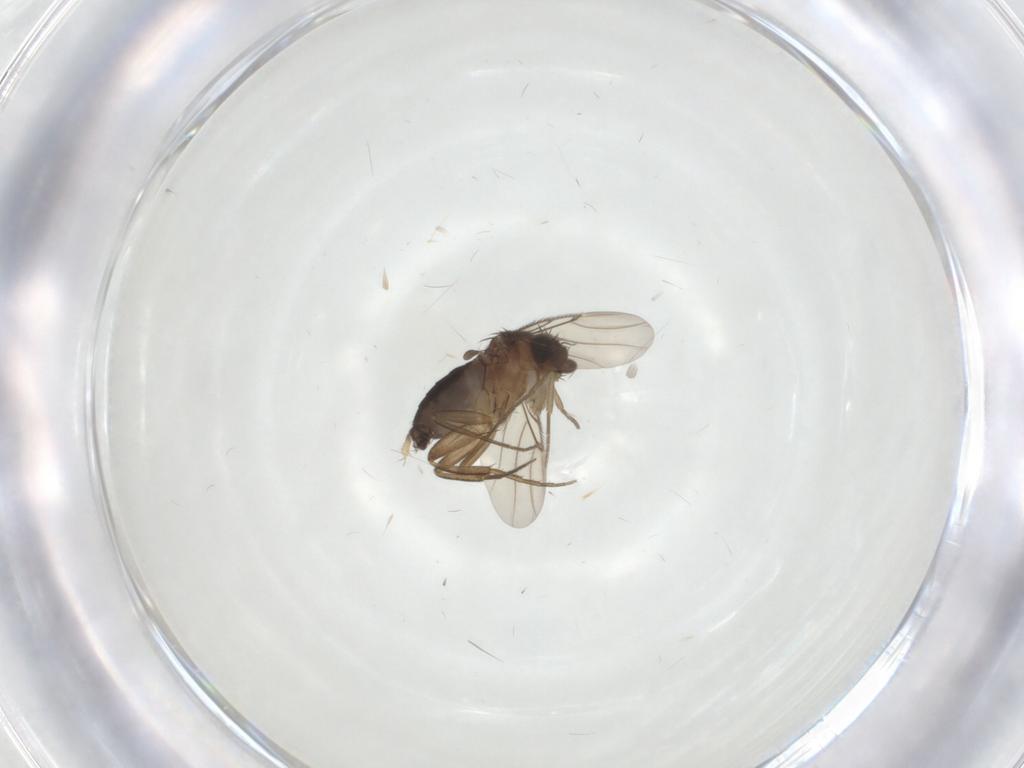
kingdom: Animalia
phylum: Arthropoda
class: Insecta
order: Diptera
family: Phoridae
